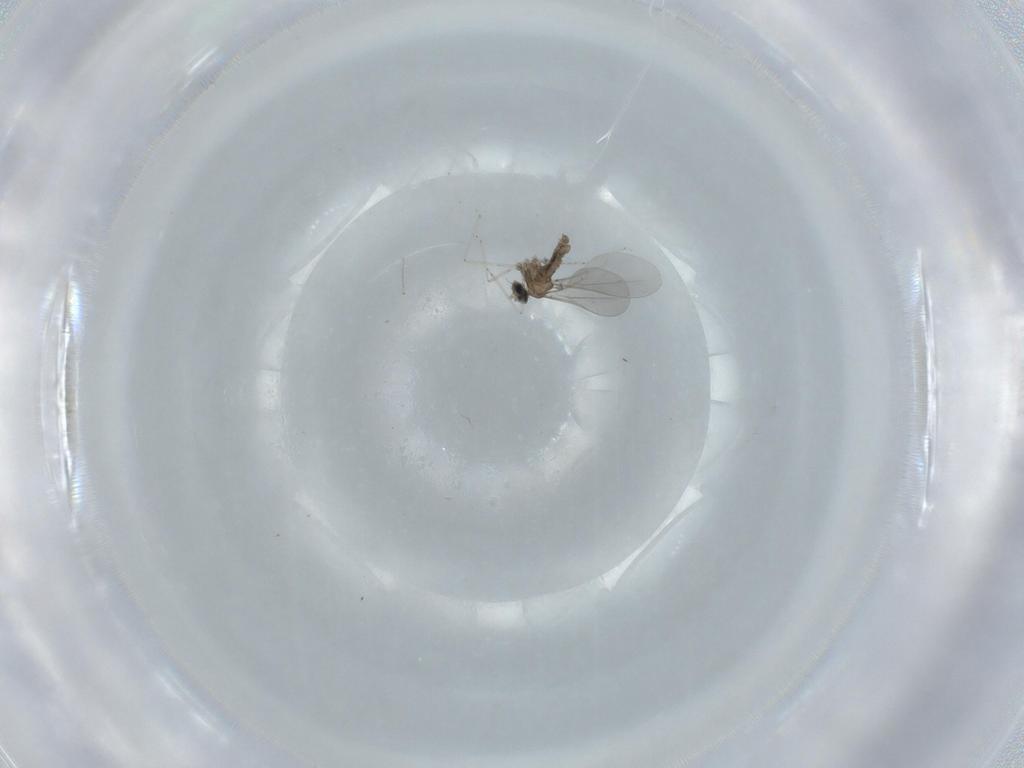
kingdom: Animalia
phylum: Arthropoda
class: Insecta
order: Diptera
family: Cecidomyiidae
